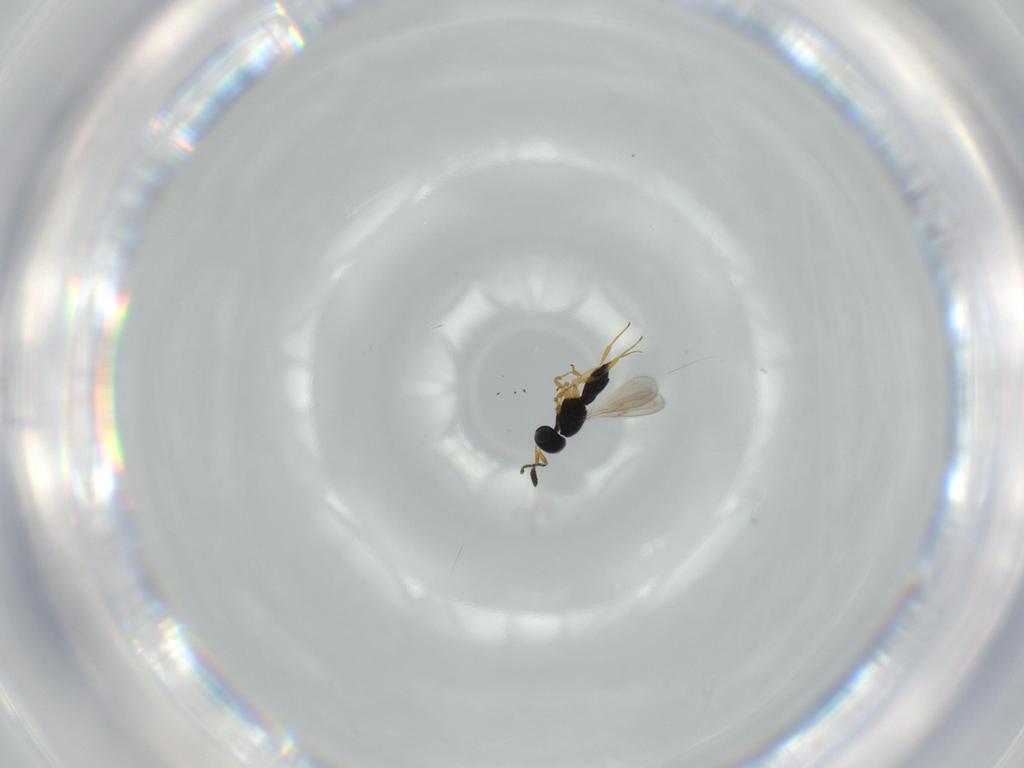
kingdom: Animalia
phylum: Arthropoda
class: Insecta
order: Hymenoptera
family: Scelionidae
